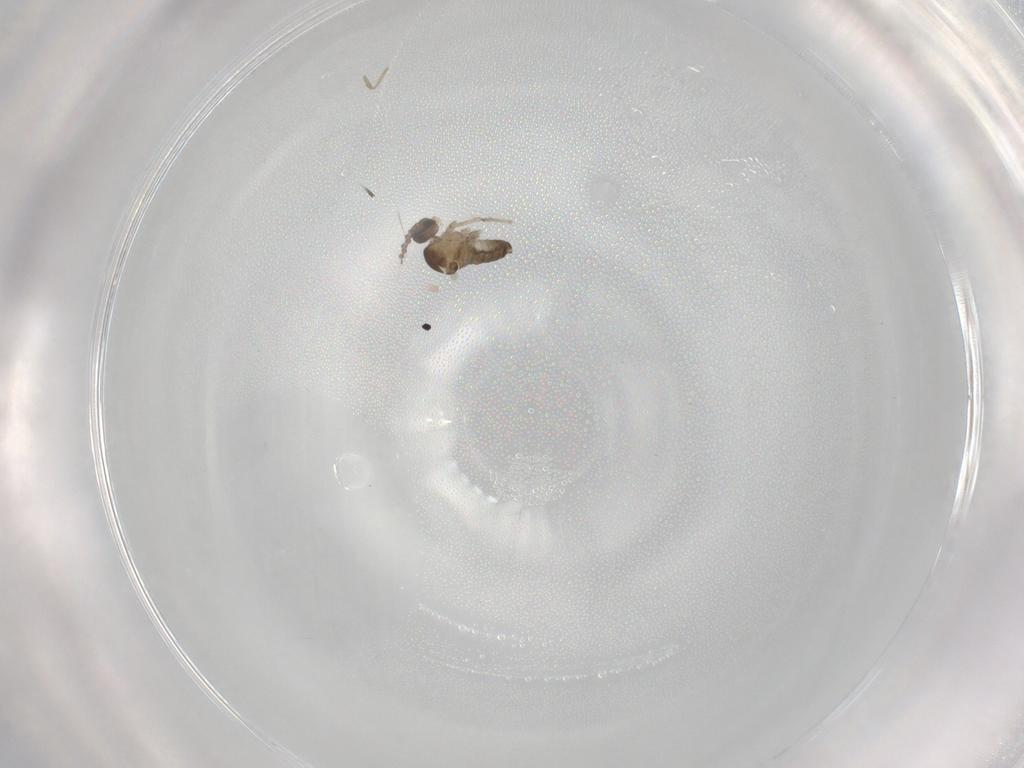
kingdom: Animalia
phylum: Arthropoda
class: Insecta
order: Diptera
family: Cecidomyiidae
